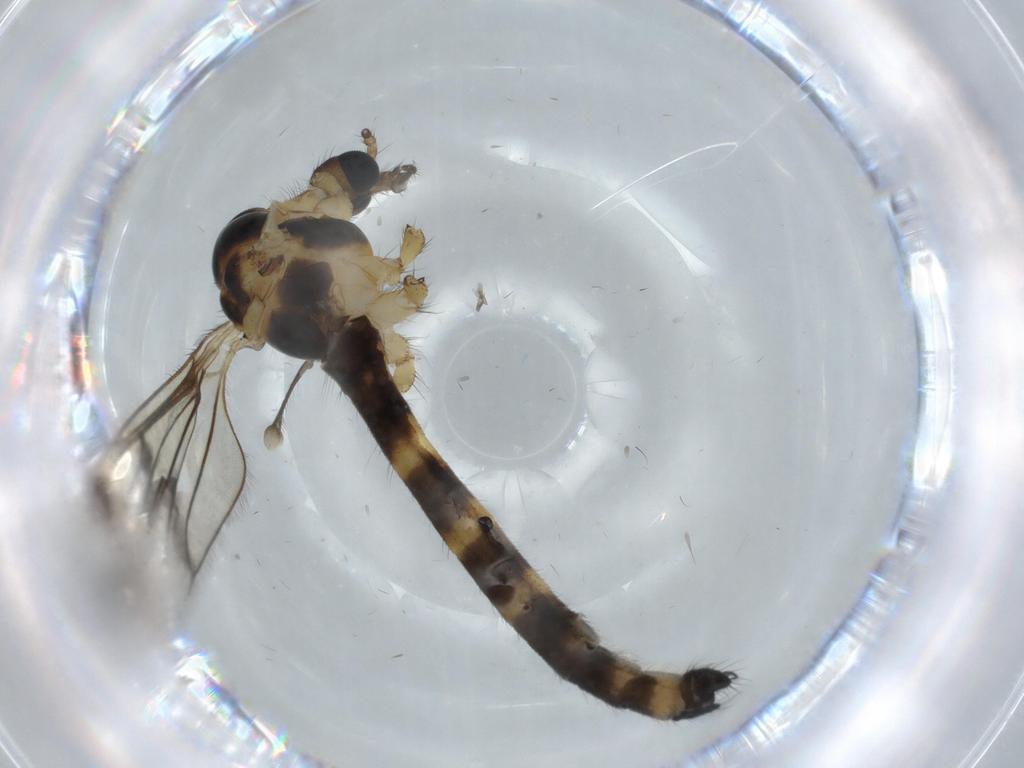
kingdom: Animalia
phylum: Arthropoda
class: Insecta
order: Diptera
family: Limoniidae
